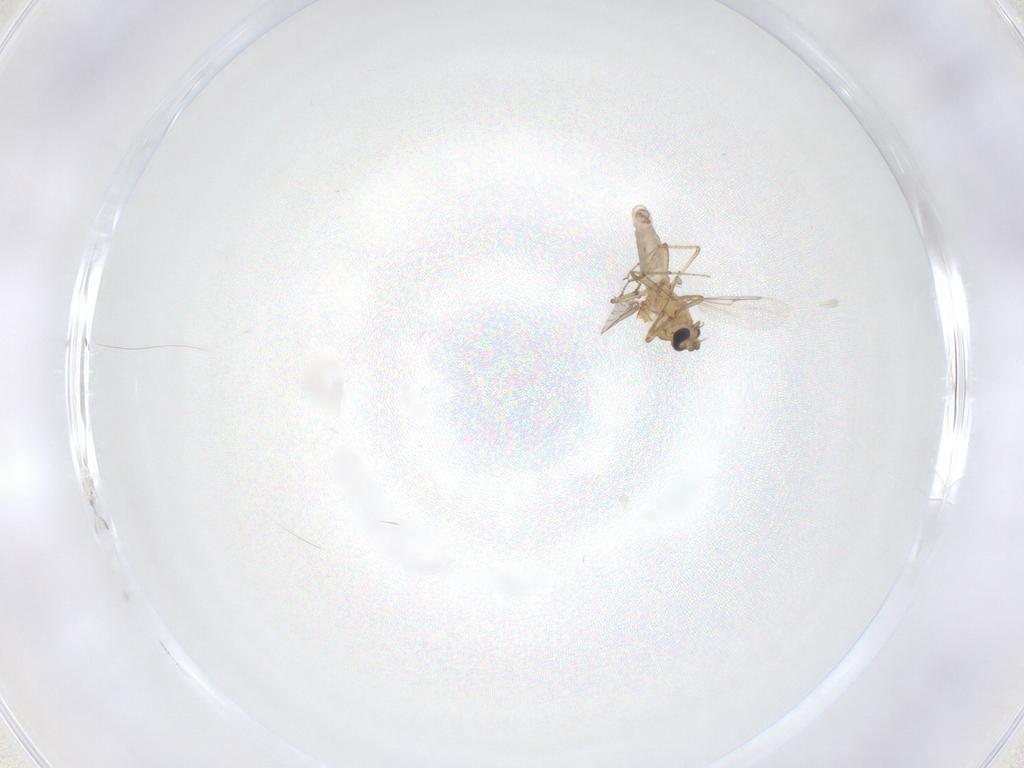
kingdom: Animalia
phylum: Arthropoda
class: Insecta
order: Diptera
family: Ceratopogonidae
